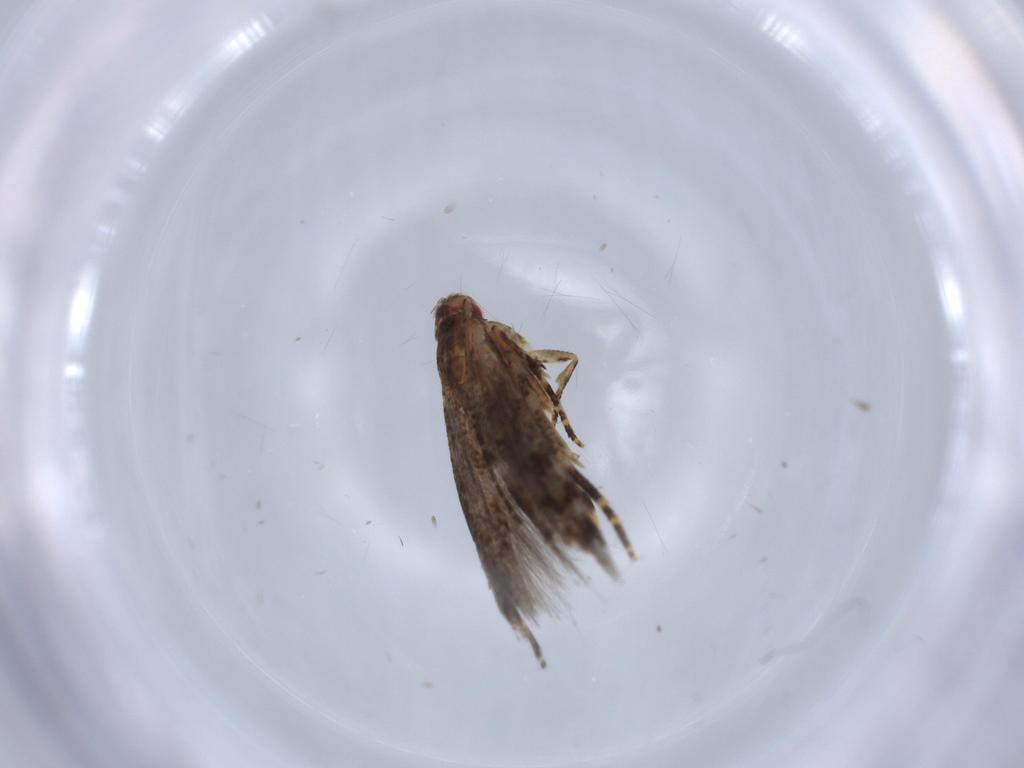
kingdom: Animalia
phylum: Arthropoda
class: Insecta
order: Lepidoptera
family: Momphidae
